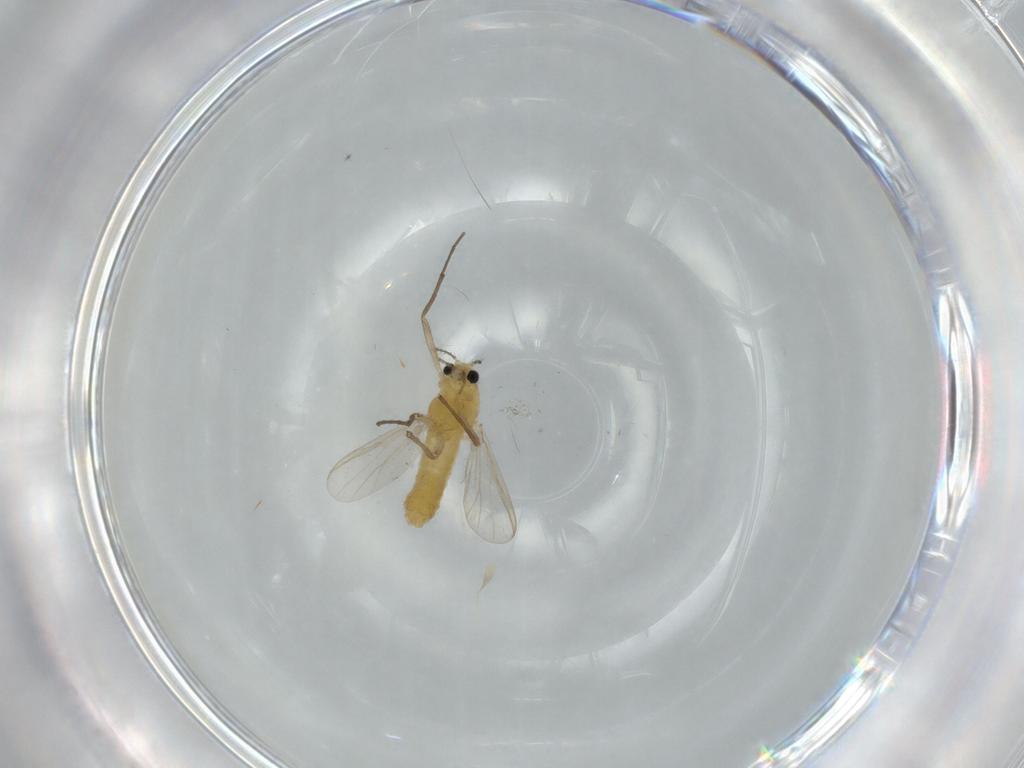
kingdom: Animalia
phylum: Arthropoda
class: Insecta
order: Diptera
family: Chironomidae
